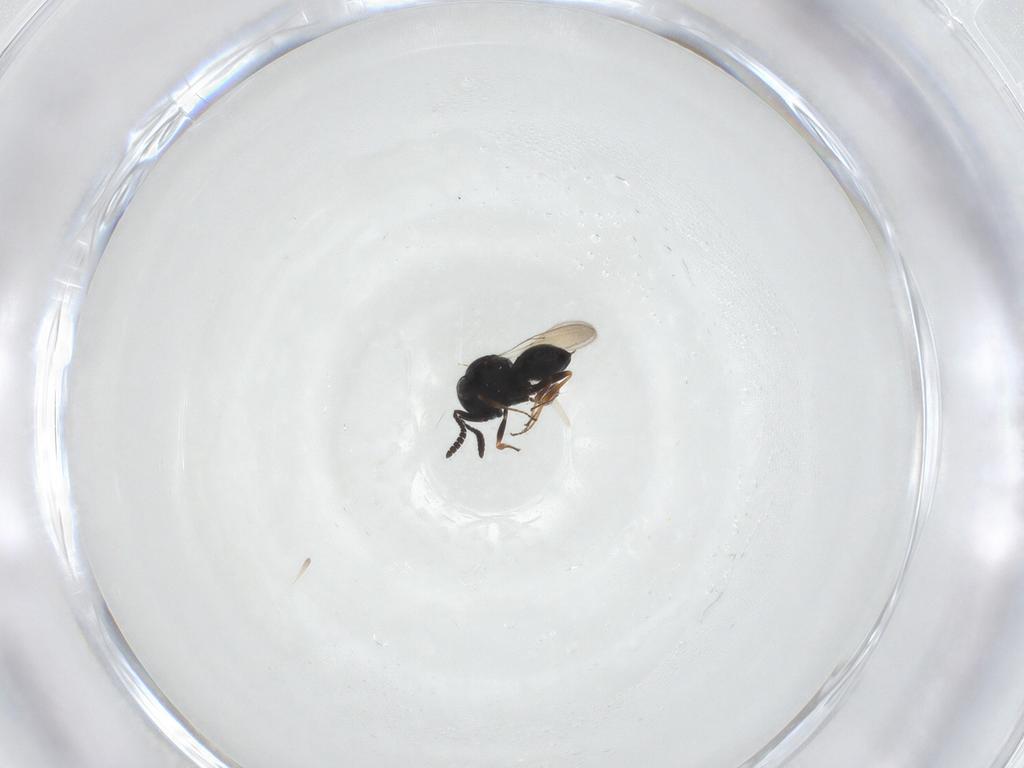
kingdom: Animalia
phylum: Arthropoda
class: Insecta
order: Hymenoptera
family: Scelionidae
